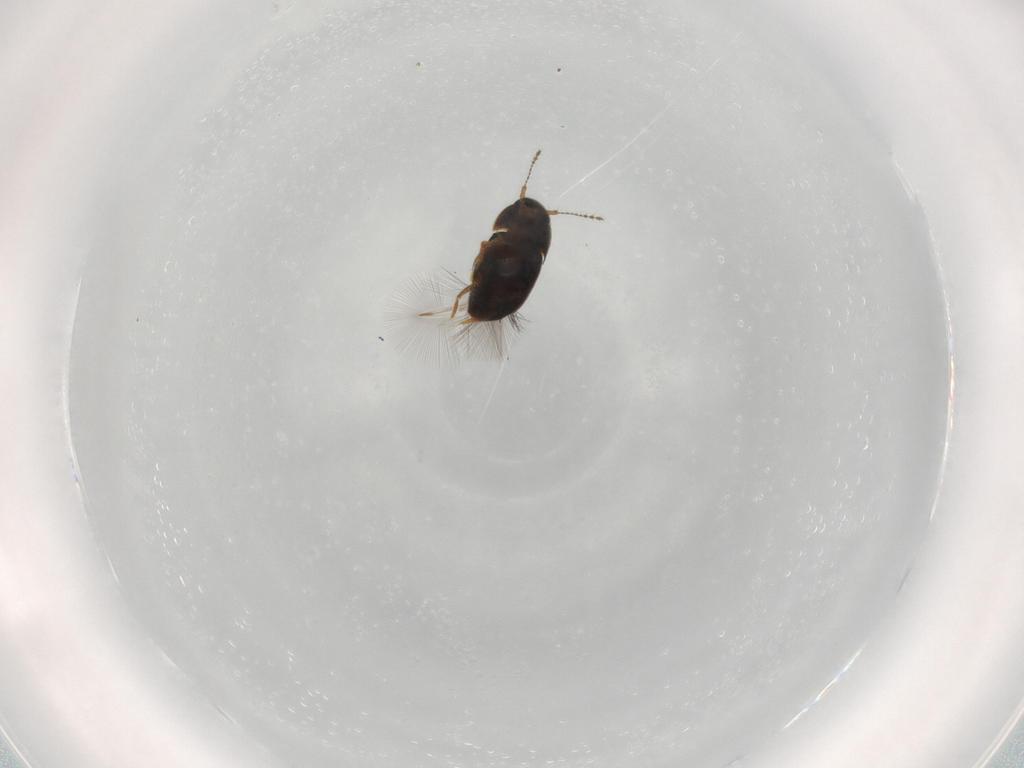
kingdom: Animalia
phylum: Arthropoda
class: Insecta
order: Coleoptera
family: Ptiliidae
